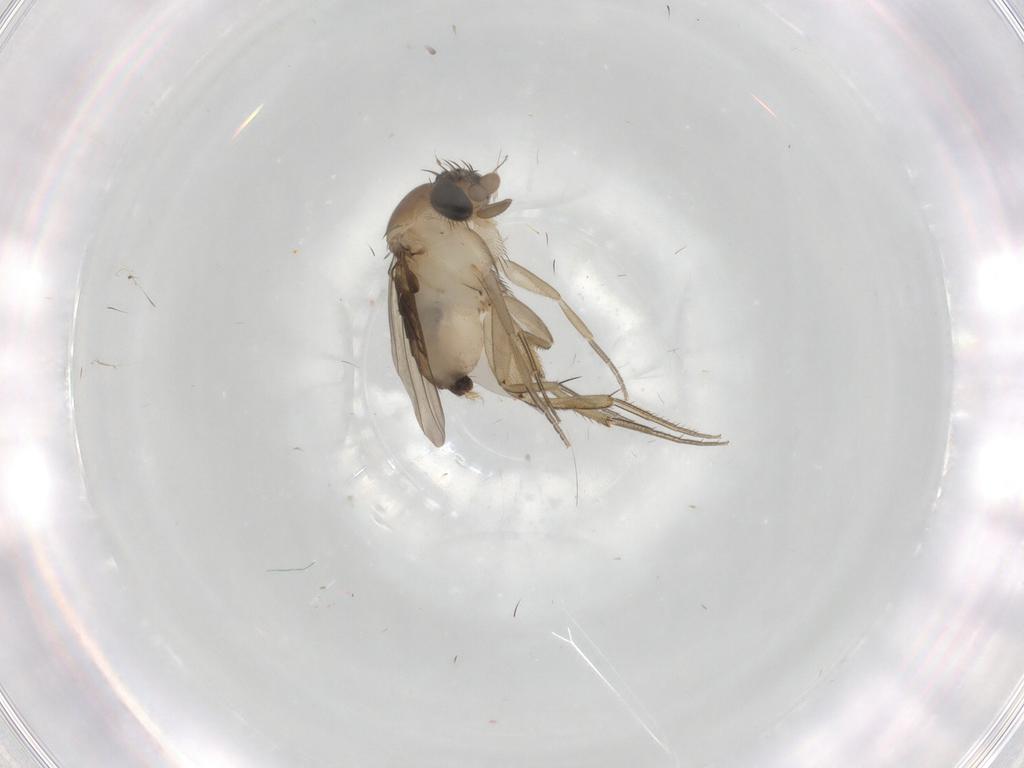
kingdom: Animalia
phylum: Arthropoda
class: Insecta
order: Diptera
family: Phoridae
